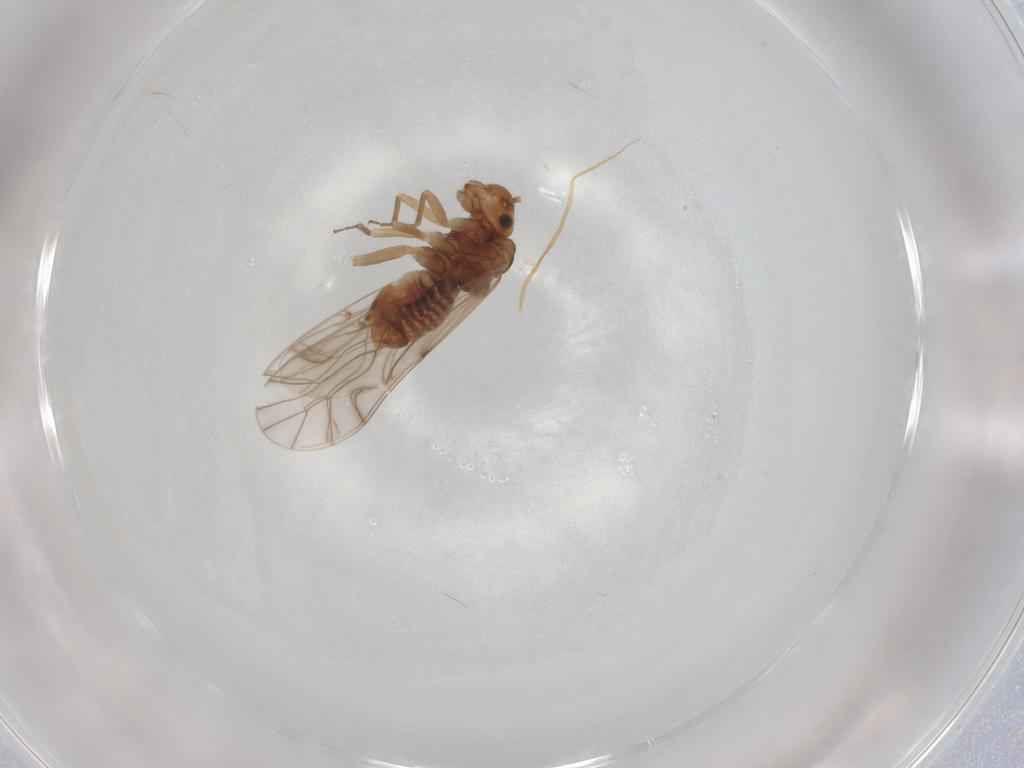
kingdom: Animalia
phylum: Arthropoda
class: Insecta
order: Psocodea
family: Lachesillidae
